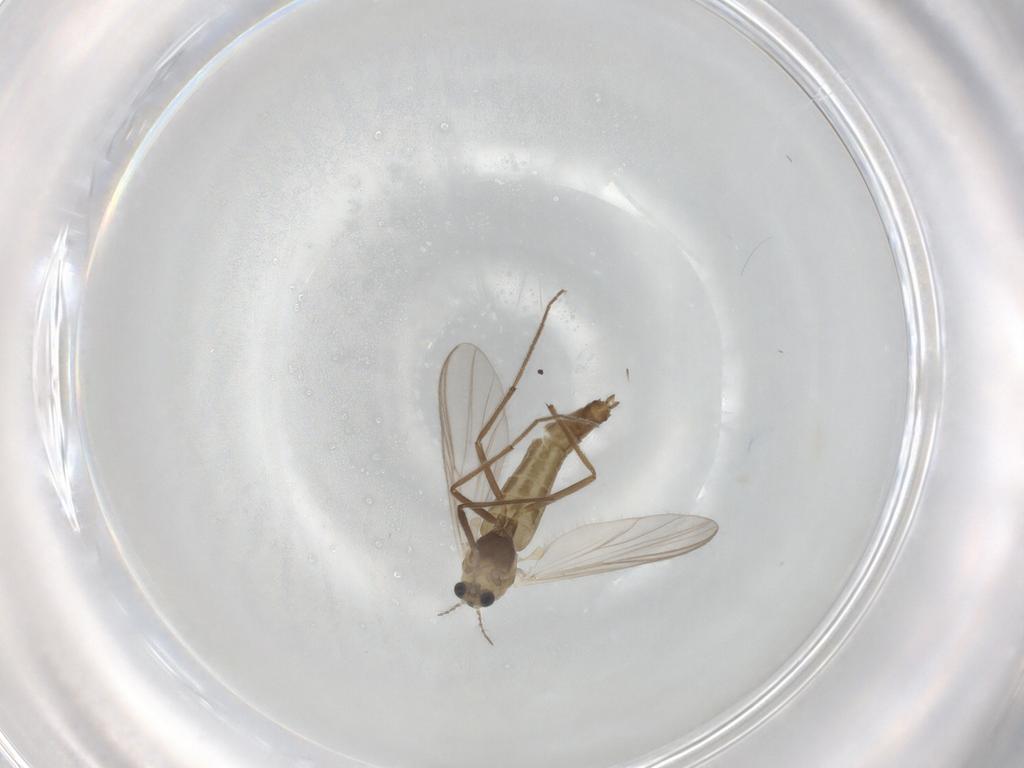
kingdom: Animalia
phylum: Arthropoda
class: Insecta
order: Diptera
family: Chironomidae
